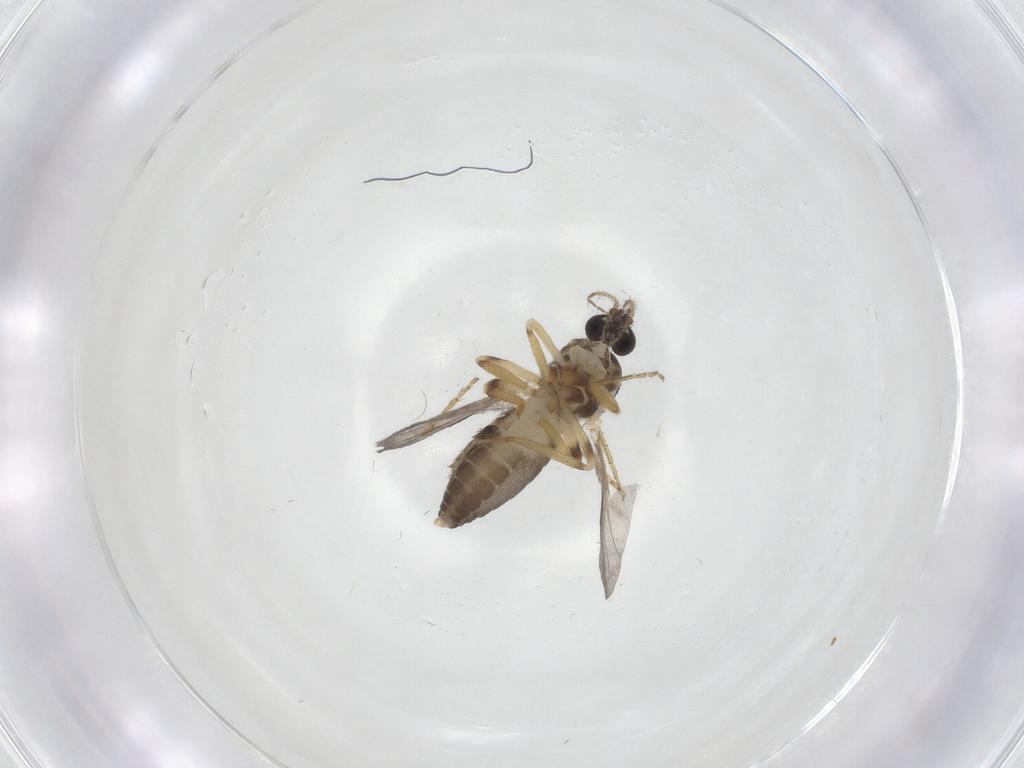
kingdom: Animalia
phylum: Arthropoda
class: Insecta
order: Diptera
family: Ceratopogonidae
